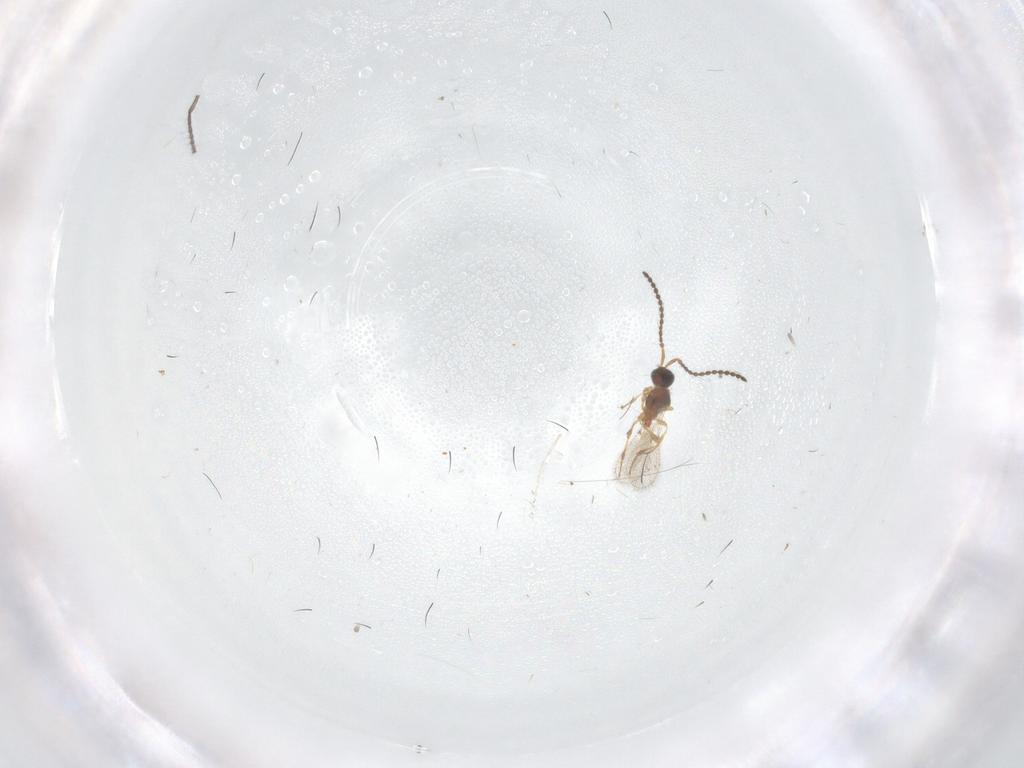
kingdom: Animalia
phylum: Arthropoda
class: Insecta
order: Hymenoptera
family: Diapriidae
